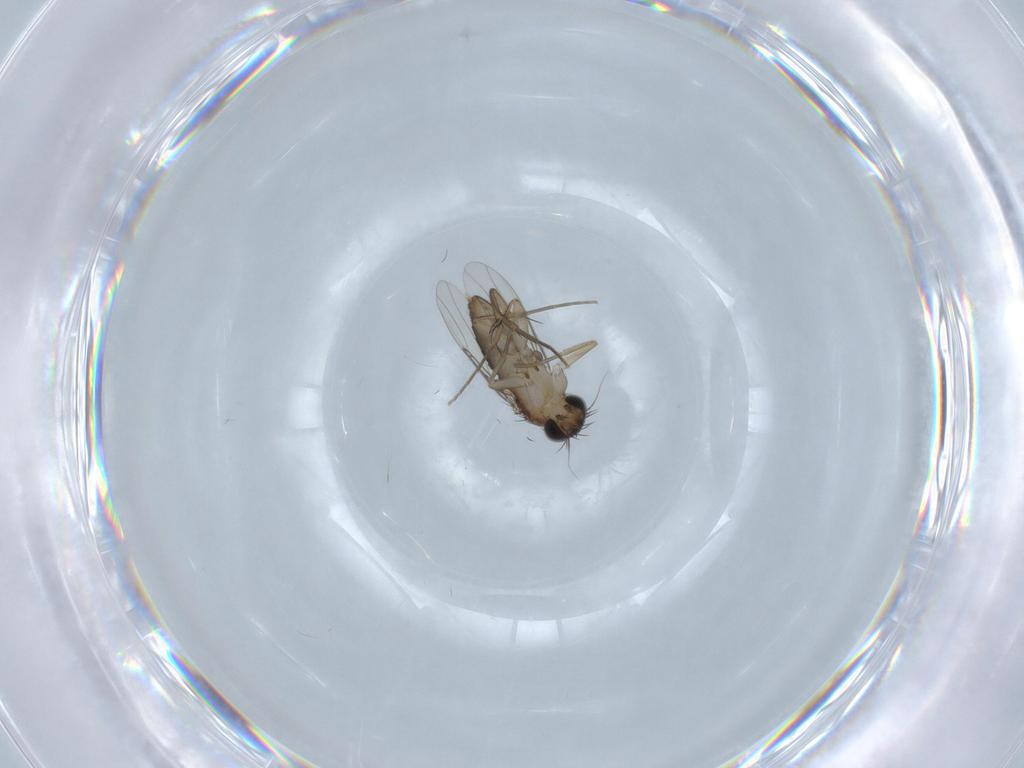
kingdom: Animalia
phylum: Arthropoda
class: Insecta
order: Diptera
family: Phoridae
